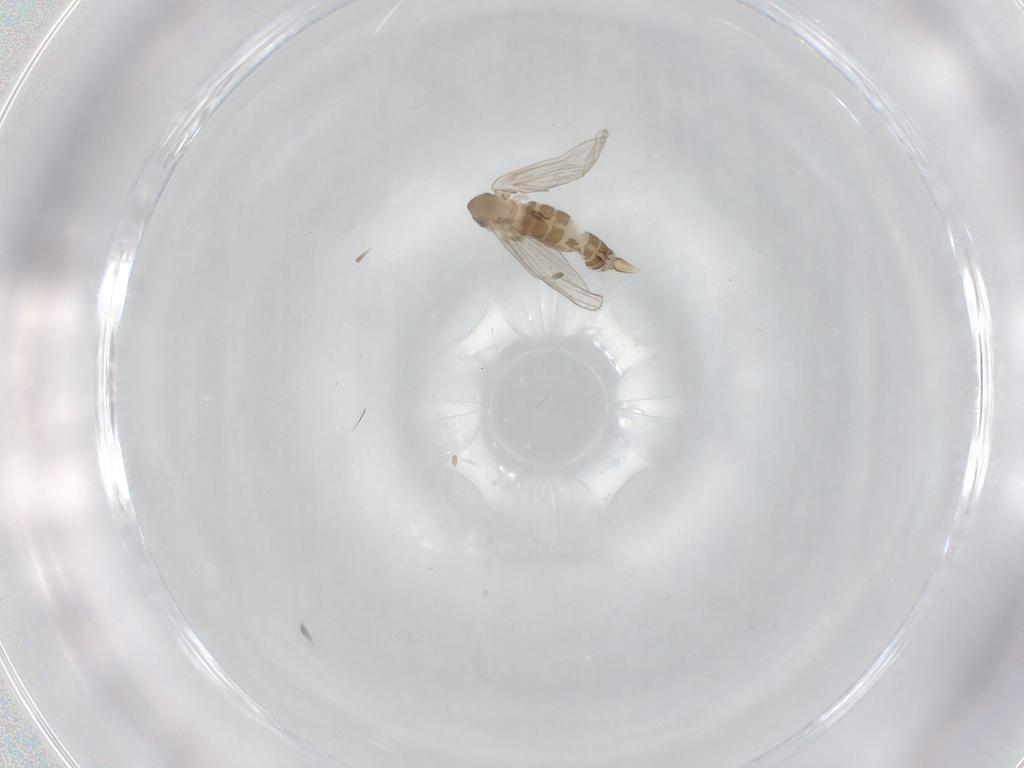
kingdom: Animalia
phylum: Arthropoda
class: Insecta
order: Diptera
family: Psychodidae
